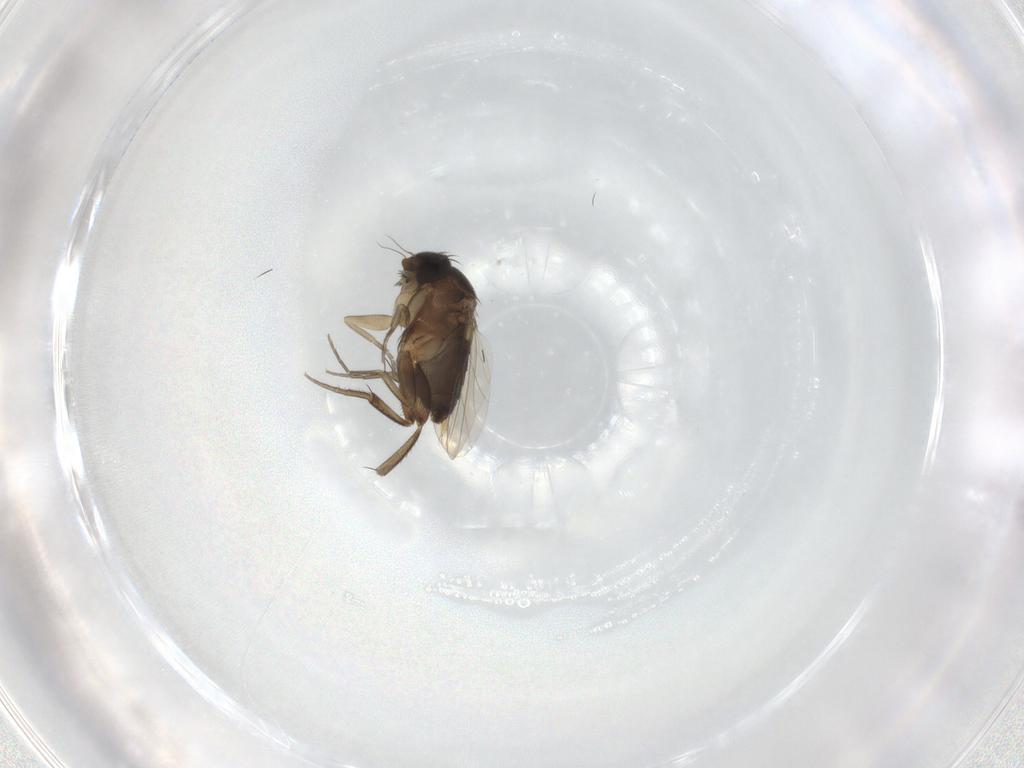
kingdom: Animalia
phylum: Arthropoda
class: Insecta
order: Diptera
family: Phoridae
